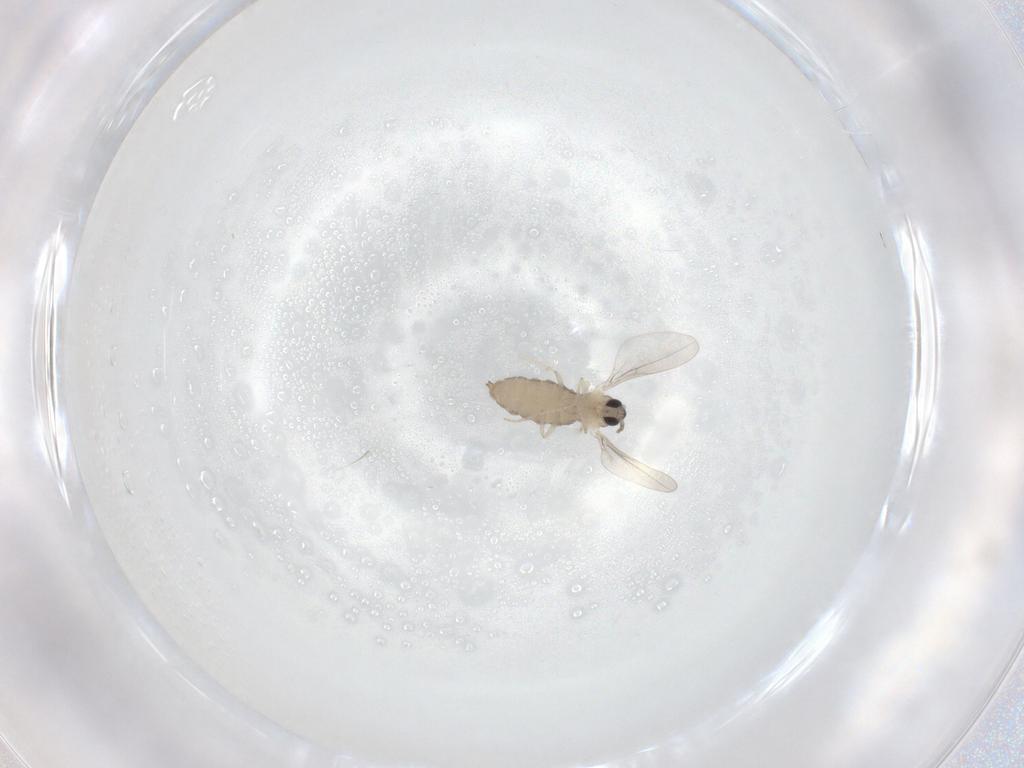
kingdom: Animalia
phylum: Arthropoda
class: Insecta
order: Diptera
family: Cecidomyiidae
